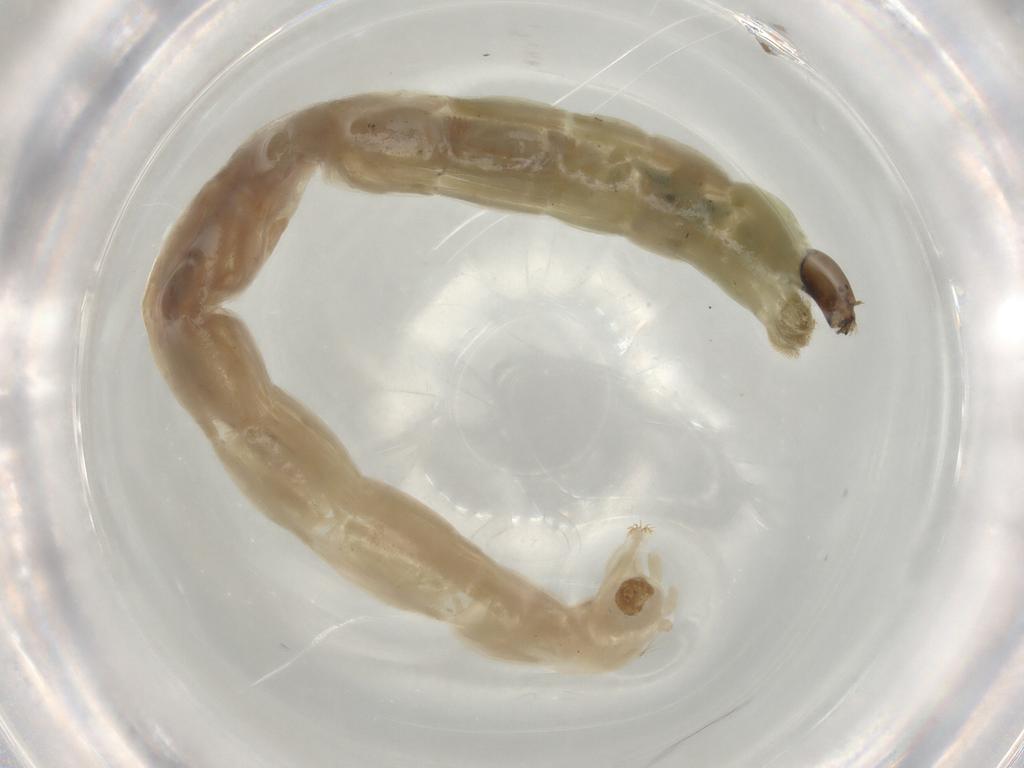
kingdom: Animalia
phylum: Arthropoda
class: Insecta
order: Diptera
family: Chironomidae
